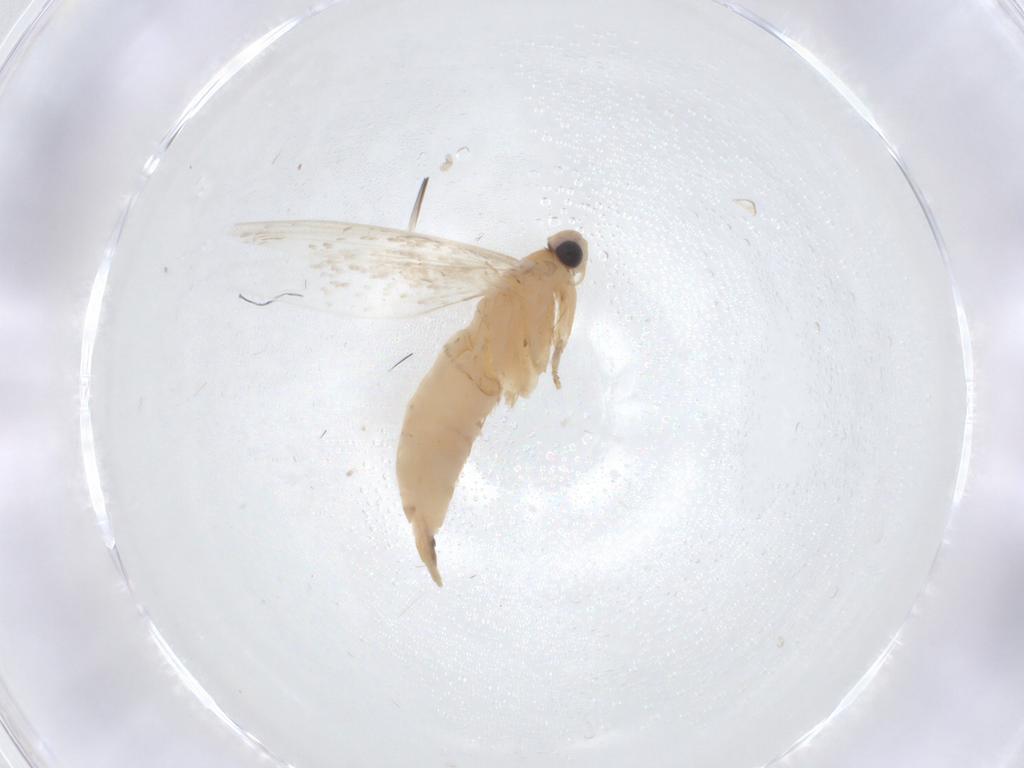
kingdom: Animalia
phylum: Arthropoda
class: Insecta
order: Lepidoptera
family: Tineidae
